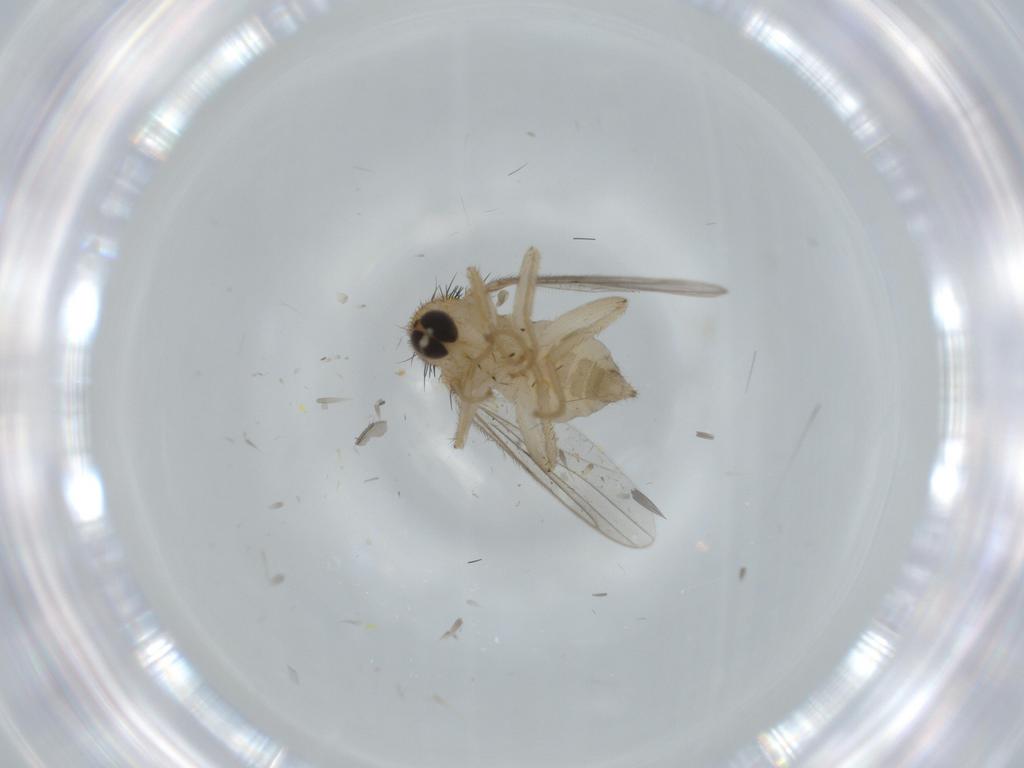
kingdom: Animalia
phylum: Arthropoda
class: Insecta
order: Diptera
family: Hybotidae
